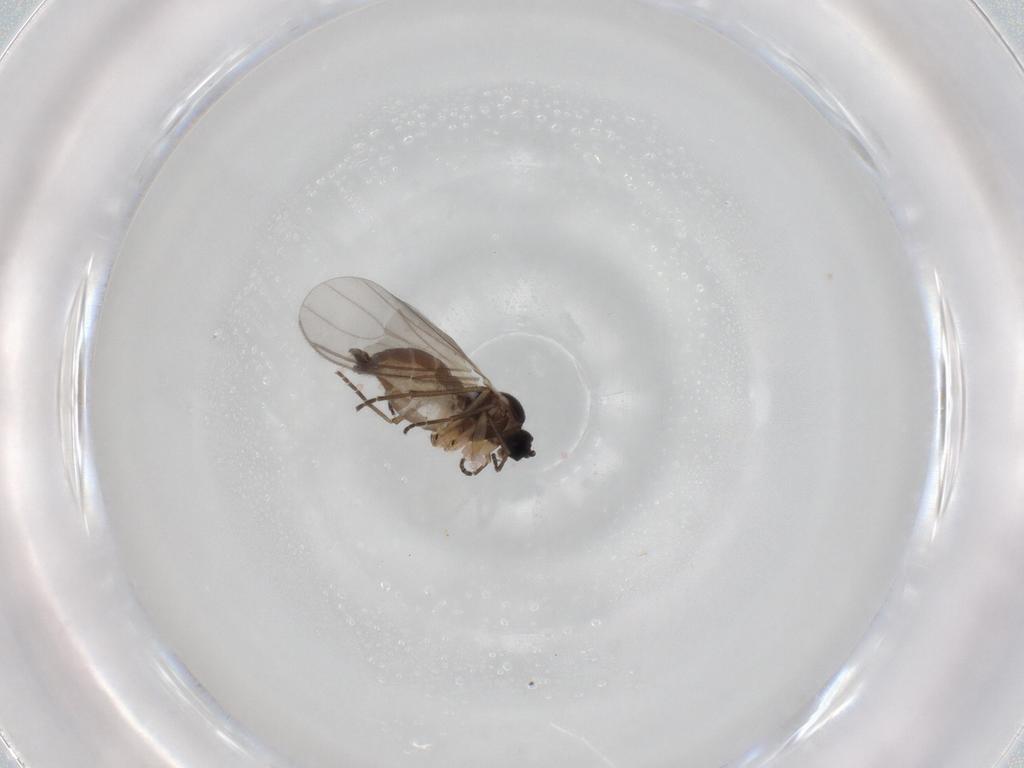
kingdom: Animalia
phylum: Arthropoda
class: Insecta
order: Diptera
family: Sciaridae
